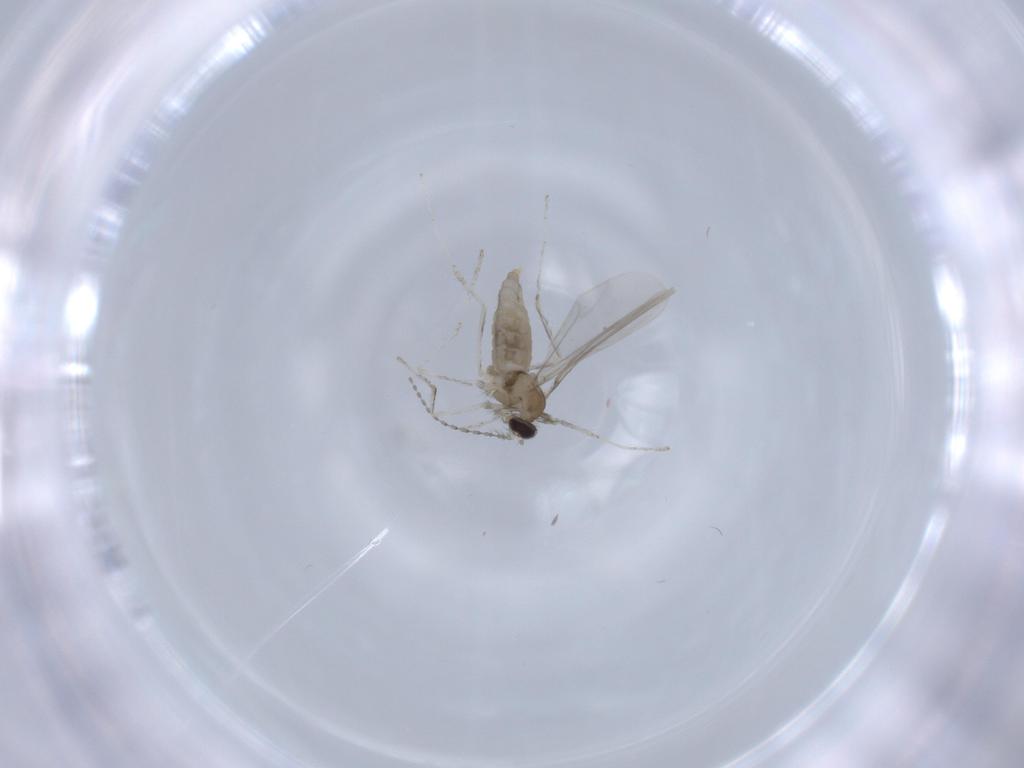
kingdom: Animalia
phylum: Arthropoda
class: Insecta
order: Diptera
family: Cecidomyiidae
